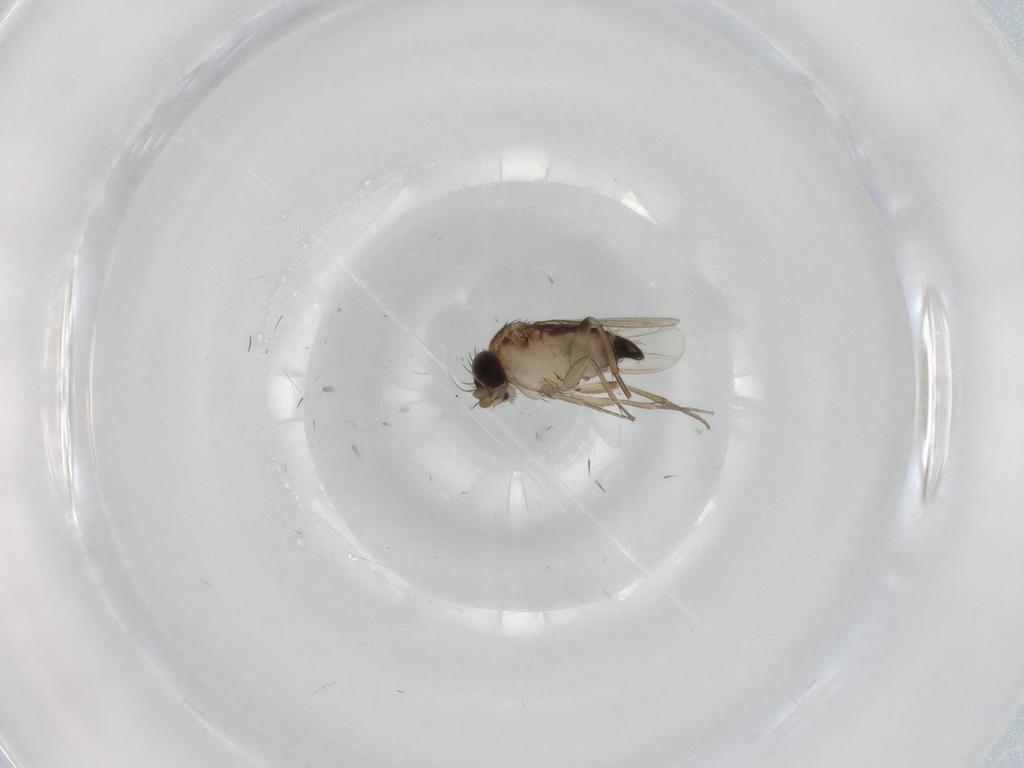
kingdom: Animalia
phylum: Arthropoda
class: Insecta
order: Diptera
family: Phoridae
